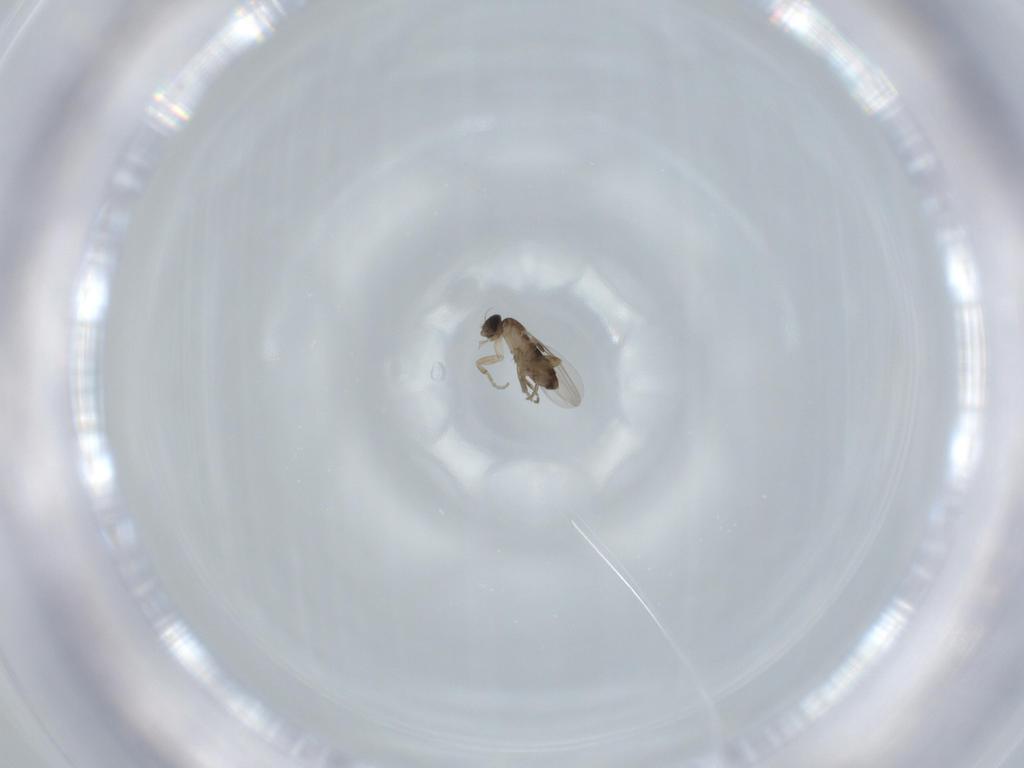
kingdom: Animalia
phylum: Arthropoda
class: Insecta
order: Diptera
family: Phoridae
